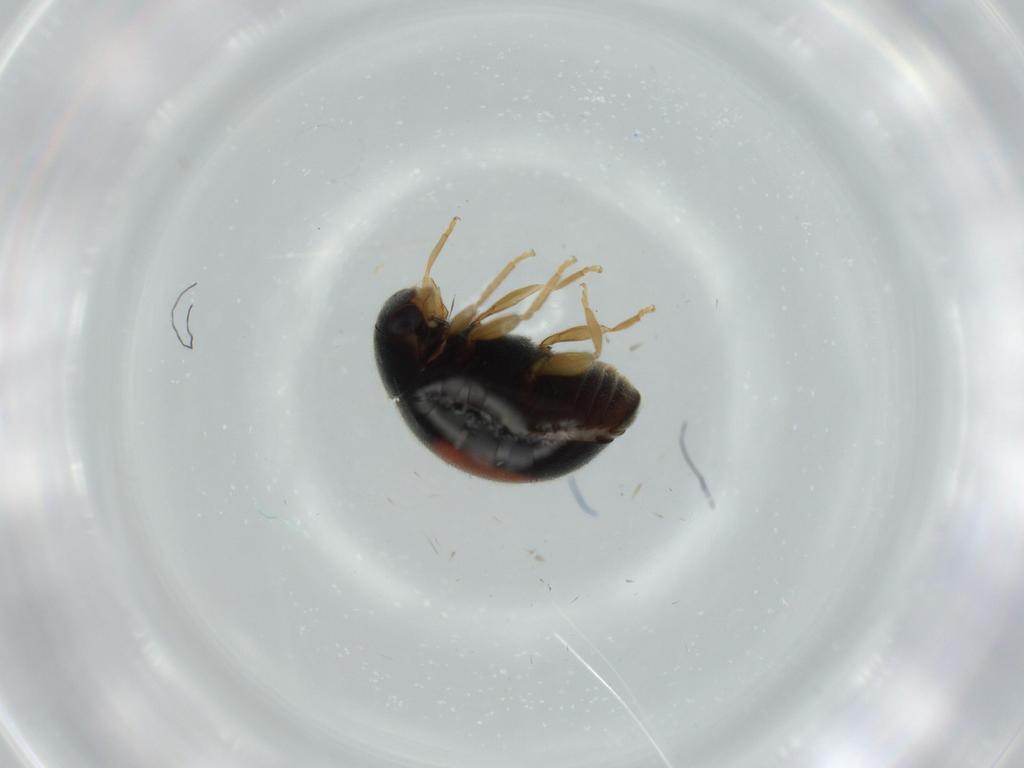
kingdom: Animalia
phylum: Arthropoda
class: Insecta
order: Coleoptera
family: Coccinellidae
